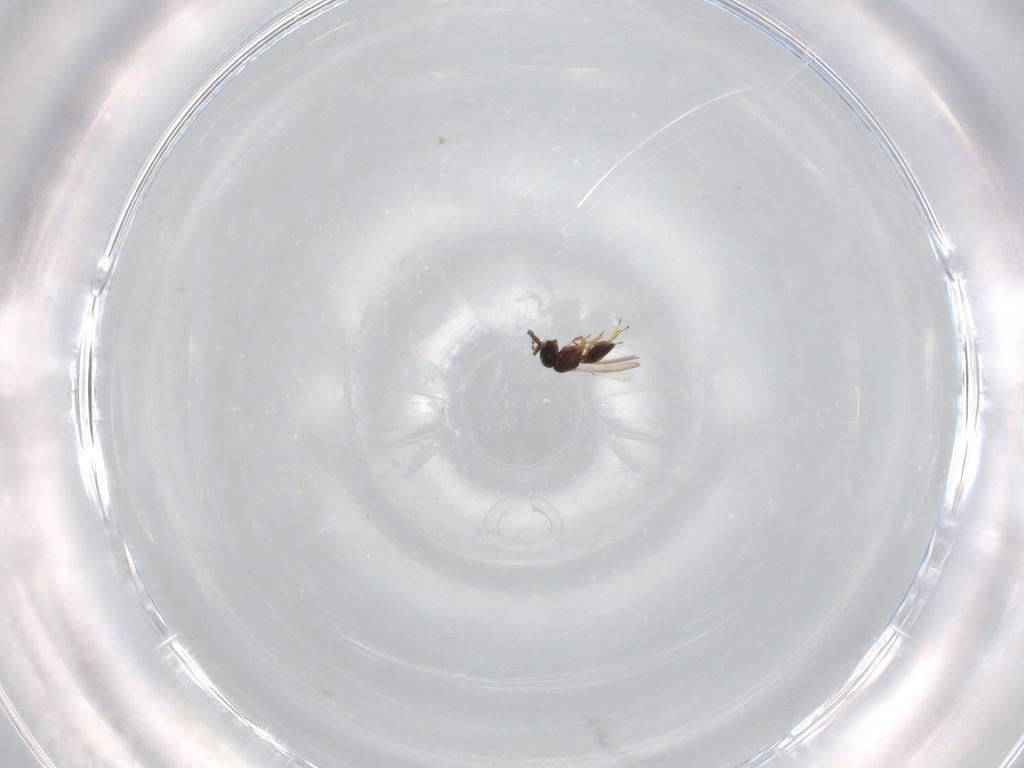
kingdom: Animalia
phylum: Arthropoda
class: Insecta
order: Hymenoptera
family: Scelionidae
